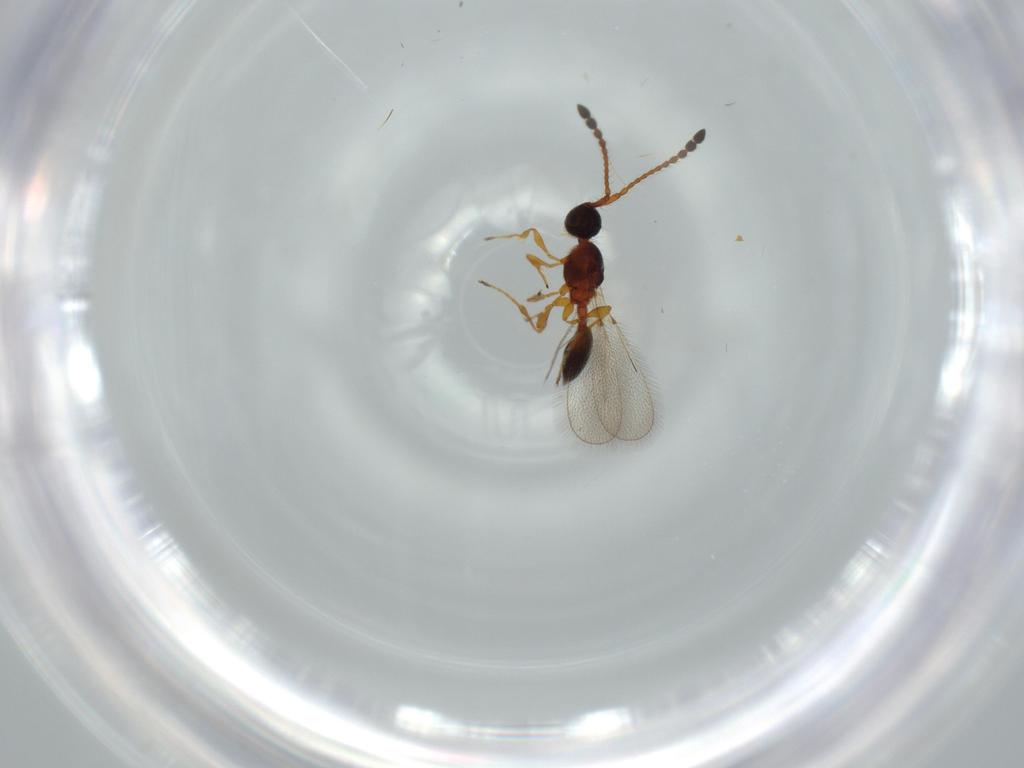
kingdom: Animalia
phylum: Arthropoda
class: Insecta
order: Hymenoptera
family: Diapriidae
